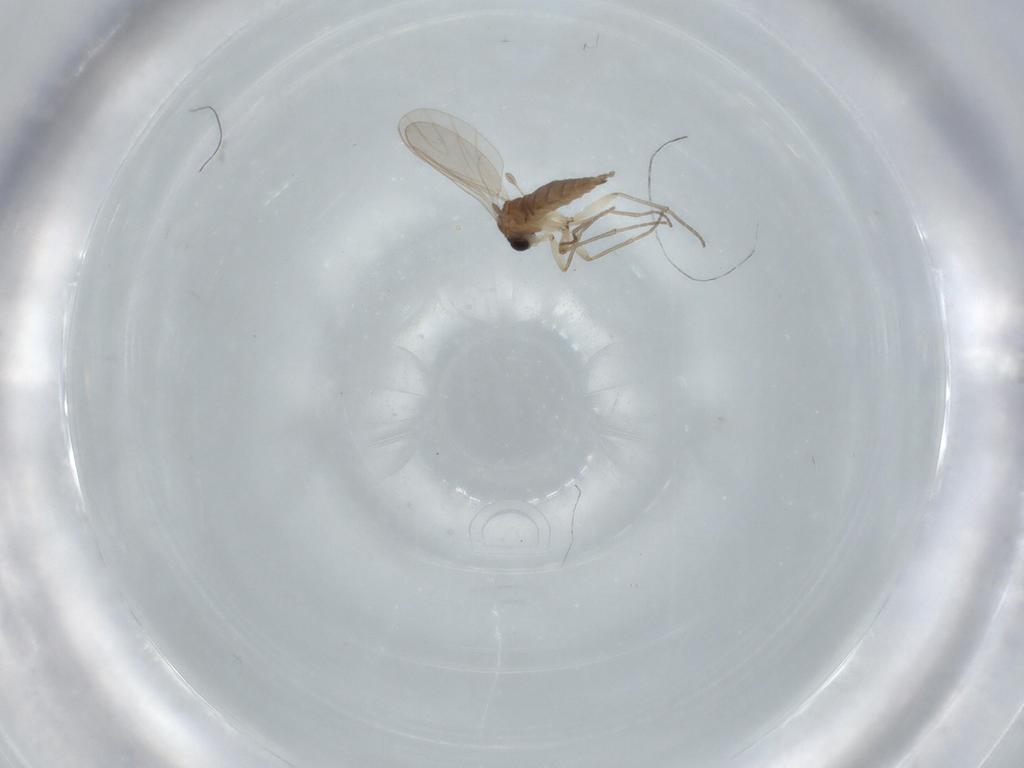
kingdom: Animalia
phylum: Arthropoda
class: Insecta
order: Diptera
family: Sciaridae
